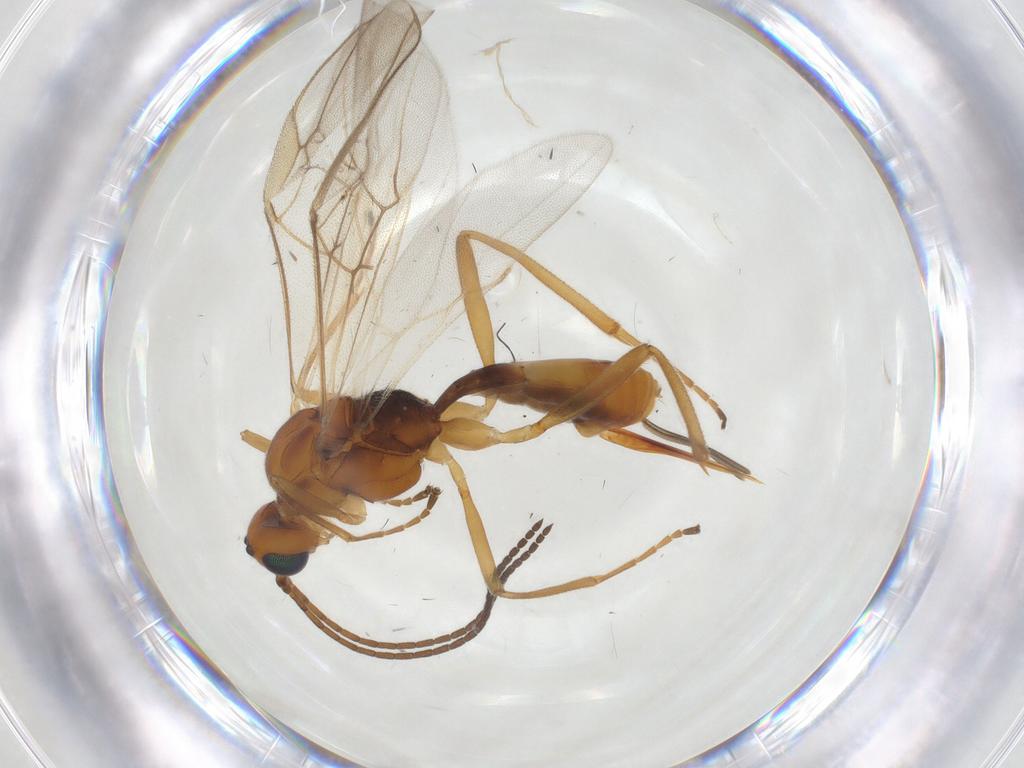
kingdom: Animalia
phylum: Arthropoda
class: Insecta
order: Hymenoptera
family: Braconidae
